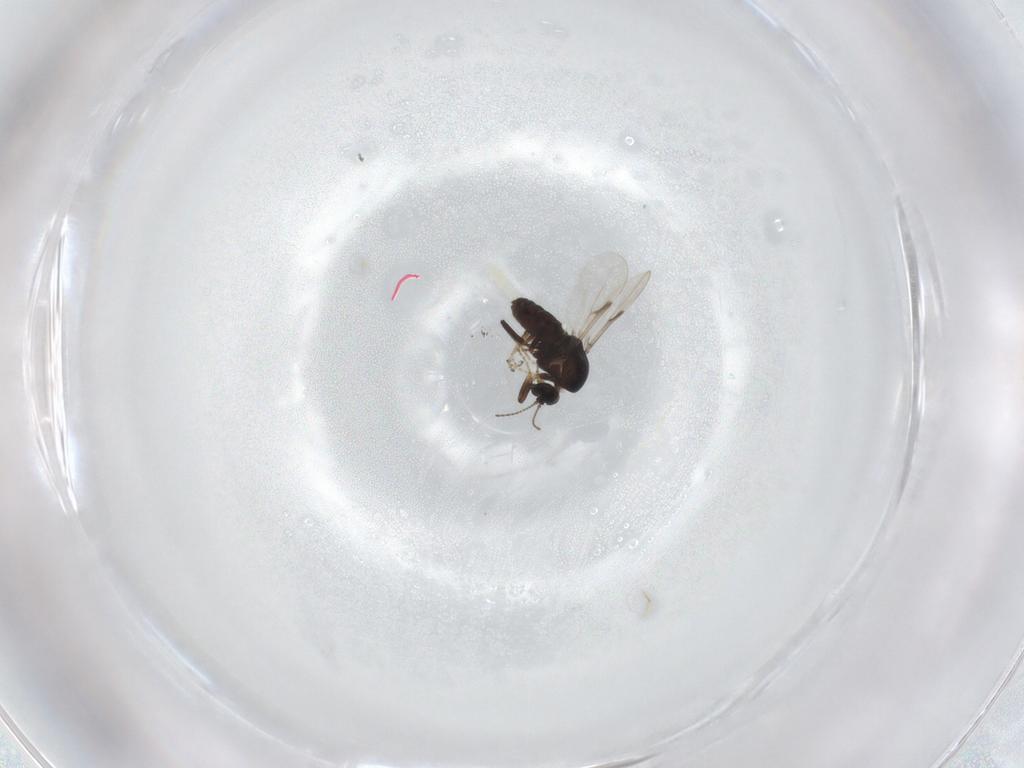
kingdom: Animalia
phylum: Arthropoda
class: Insecta
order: Diptera
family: Ceratopogonidae
